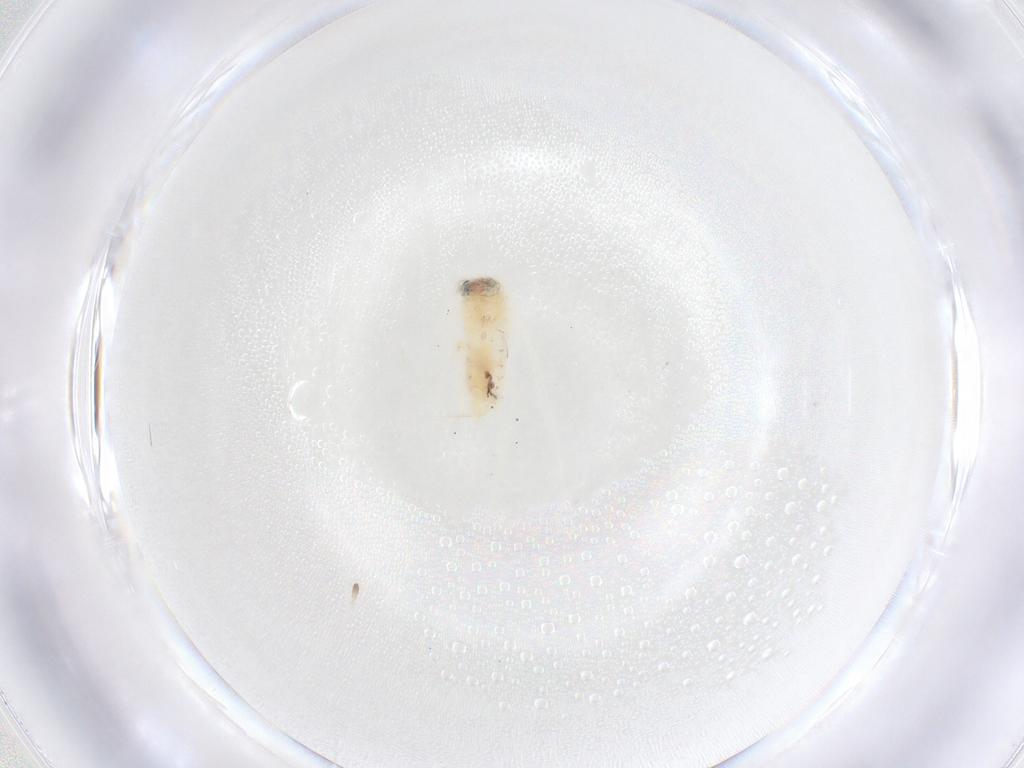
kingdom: Animalia
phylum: Arthropoda
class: Insecta
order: Diptera
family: Sciaridae
